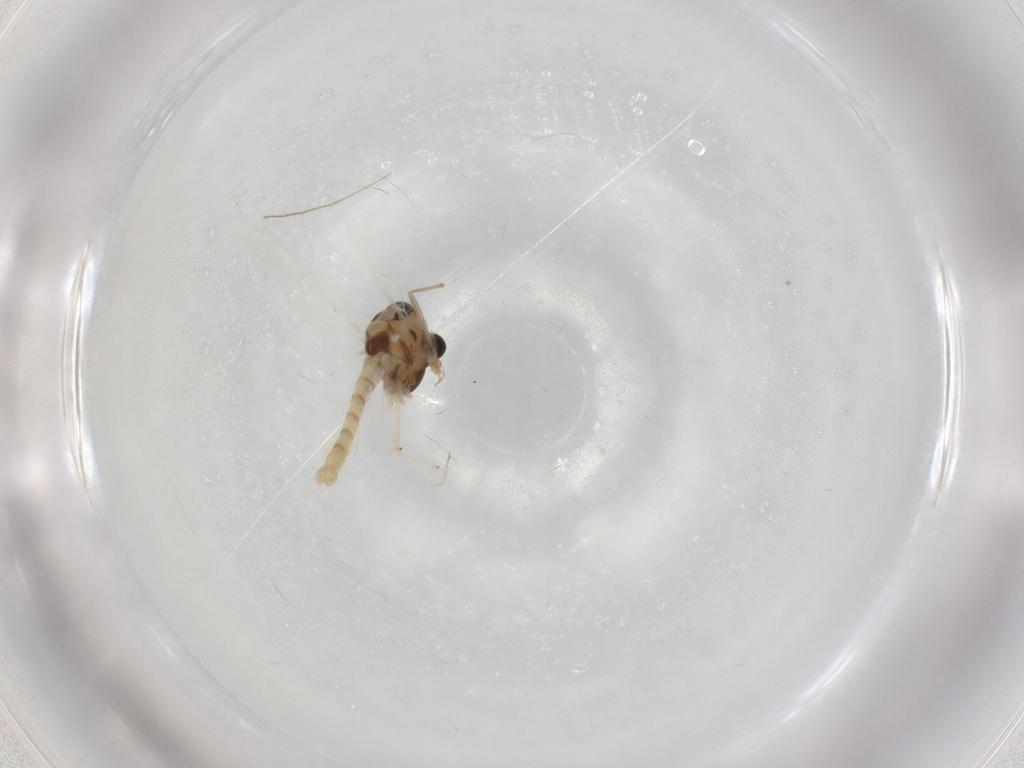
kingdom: Animalia
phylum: Arthropoda
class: Insecta
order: Diptera
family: Chironomidae
